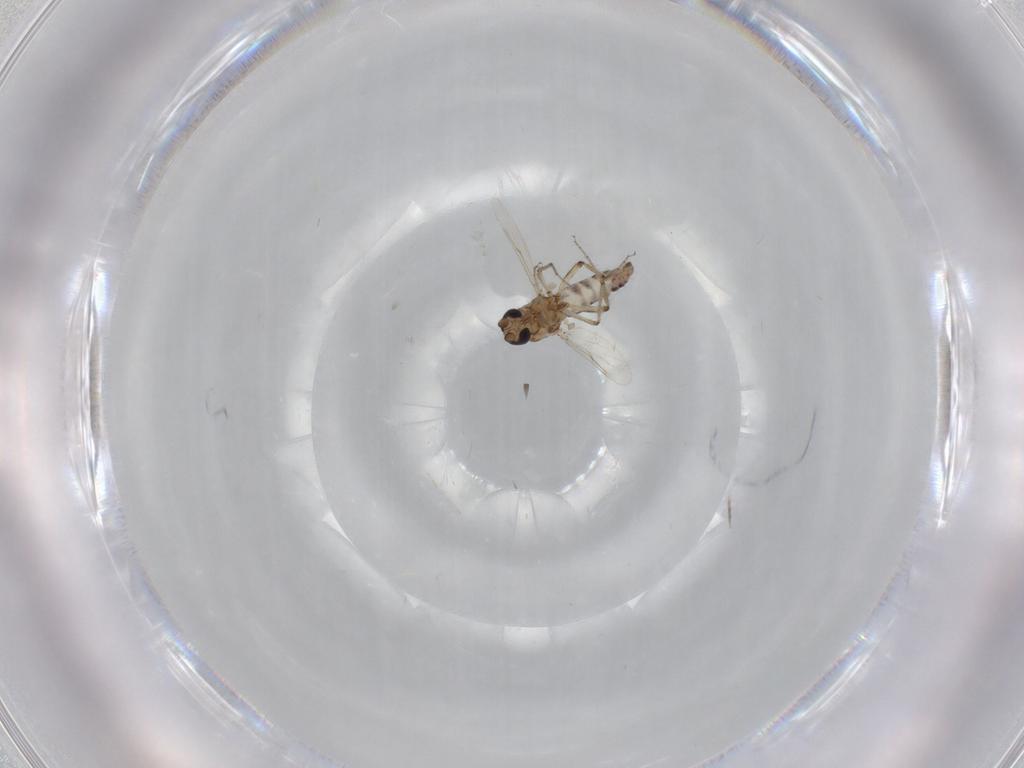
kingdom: Animalia
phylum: Arthropoda
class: Insecta
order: Diptera
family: Ceratopogonidae
